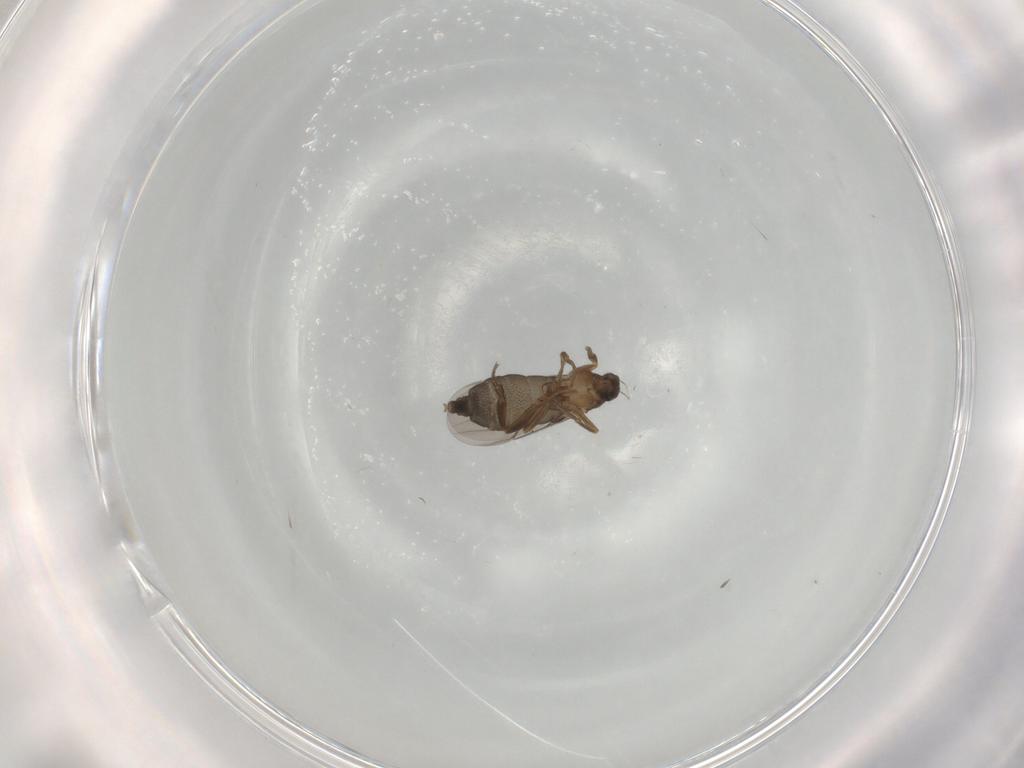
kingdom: Animalia
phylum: Arthropoda
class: Insecta
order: Diptera
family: Phoridae
